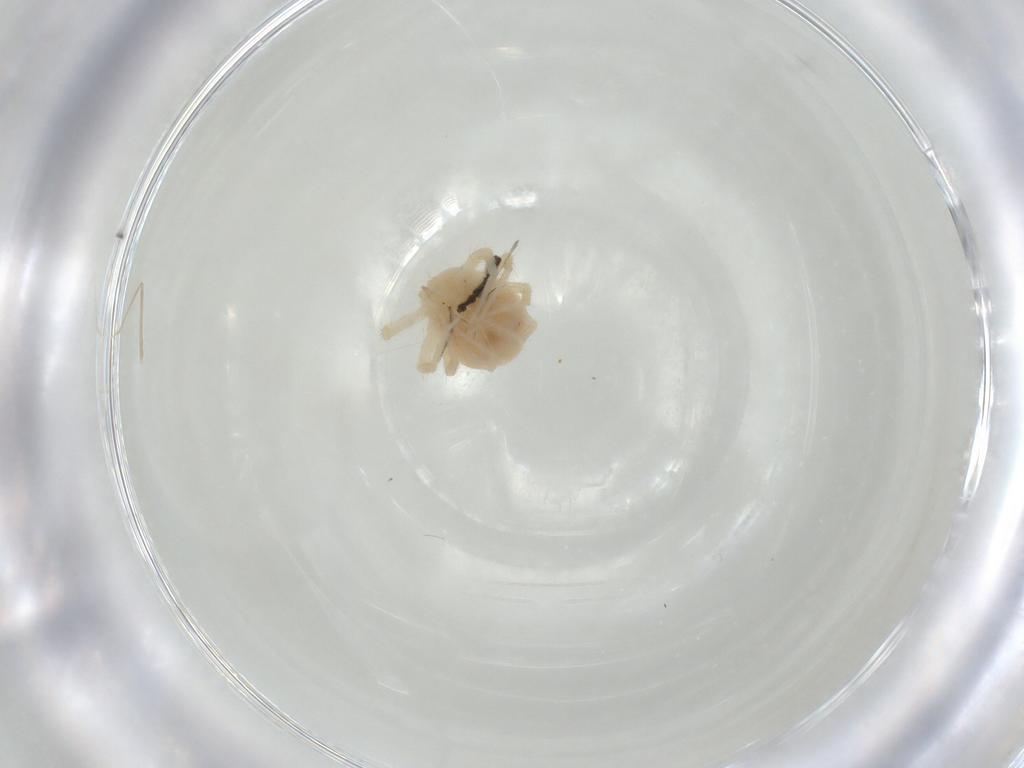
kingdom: Animalia
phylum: Arthropoda
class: Arachnida
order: Trombidiformes
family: Anystidae
